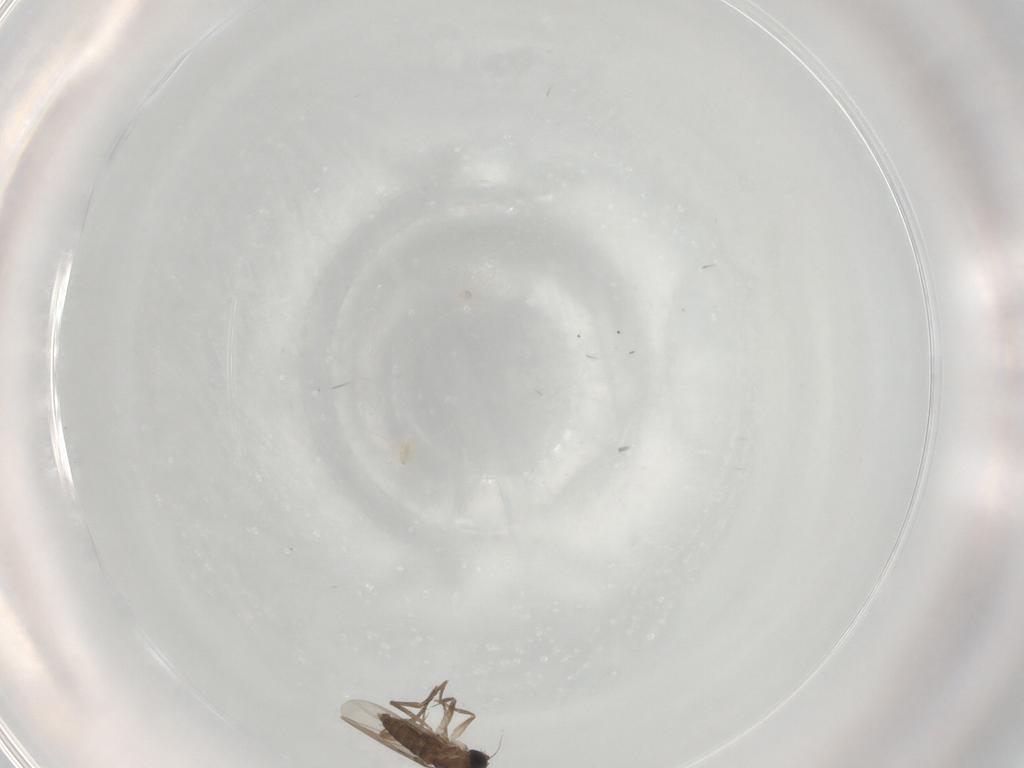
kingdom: Animalia
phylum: Arthropoda
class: Insecta
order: Diptera
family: Phoridae
